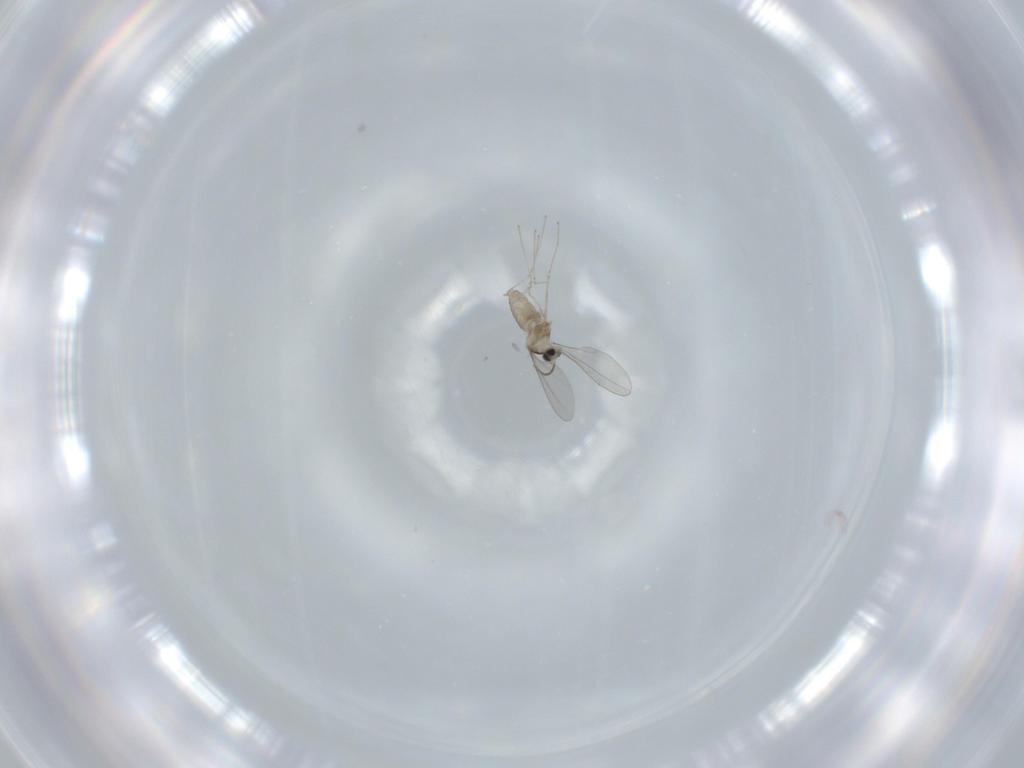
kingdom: Animalia
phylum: Arthropoda
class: Insecta
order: Diptera
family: Cecidomyiidae
